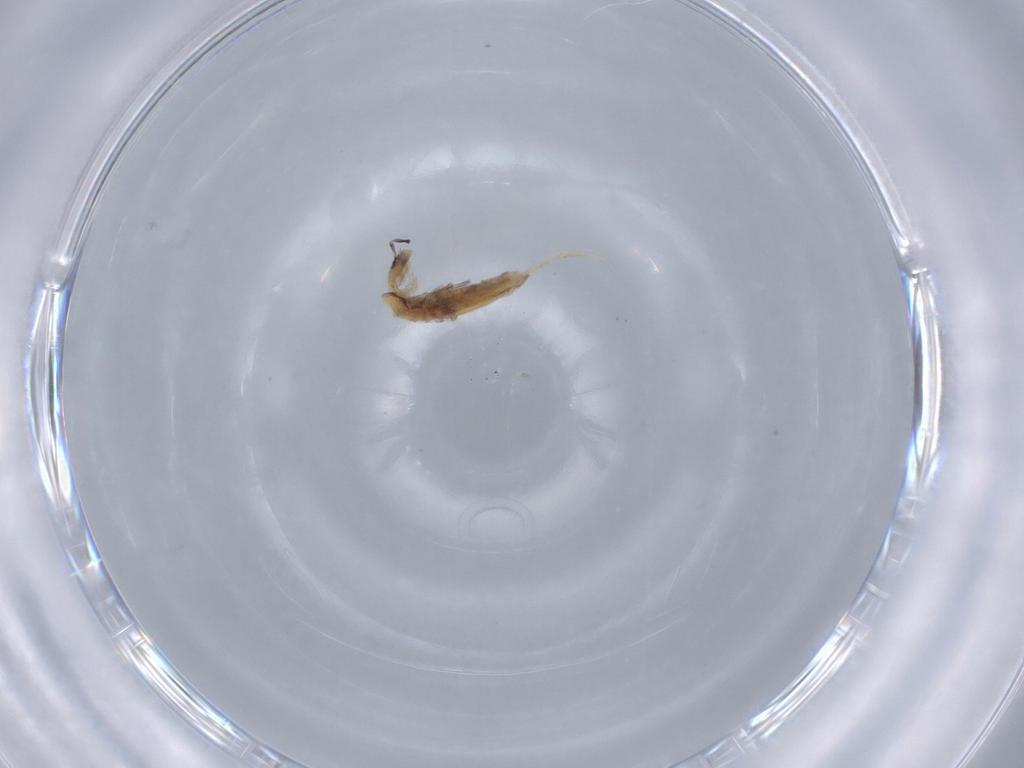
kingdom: Animalia
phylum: Arthropoda
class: Collembola
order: Poduromorpha
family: Hypogastruridae
